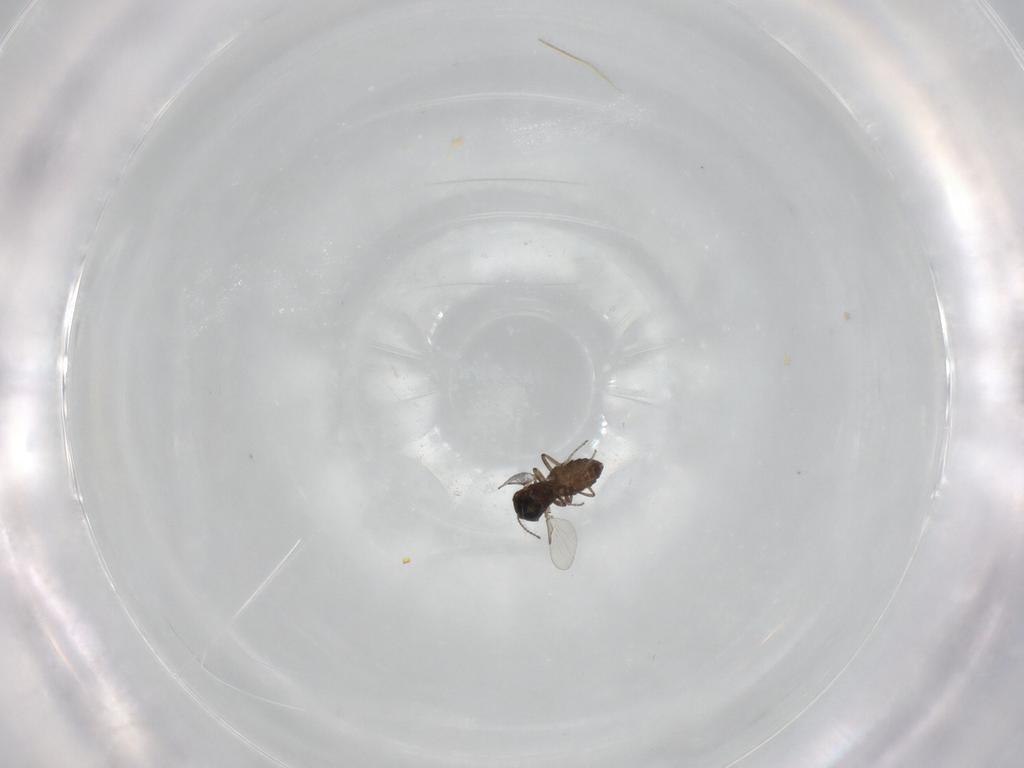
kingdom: Animalia
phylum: Arthropoda
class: Insecta
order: Diptera
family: Ceratopogonidae
